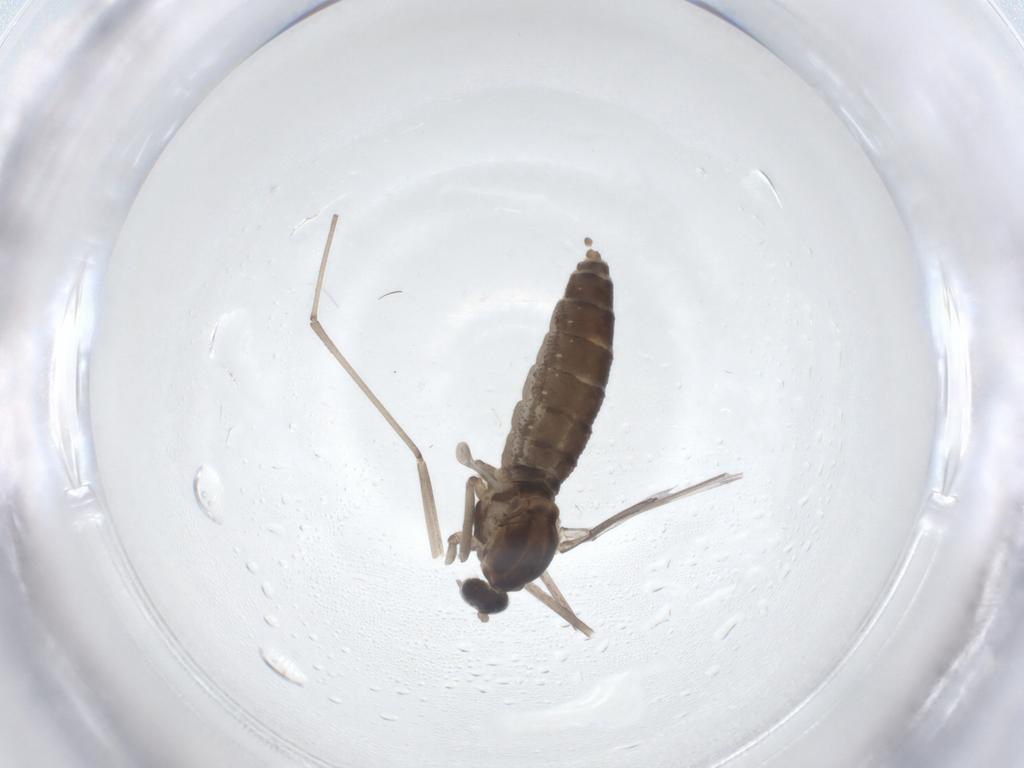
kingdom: Animalia
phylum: Arthropoda
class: Insecta
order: Diptera
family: Chironomidae
